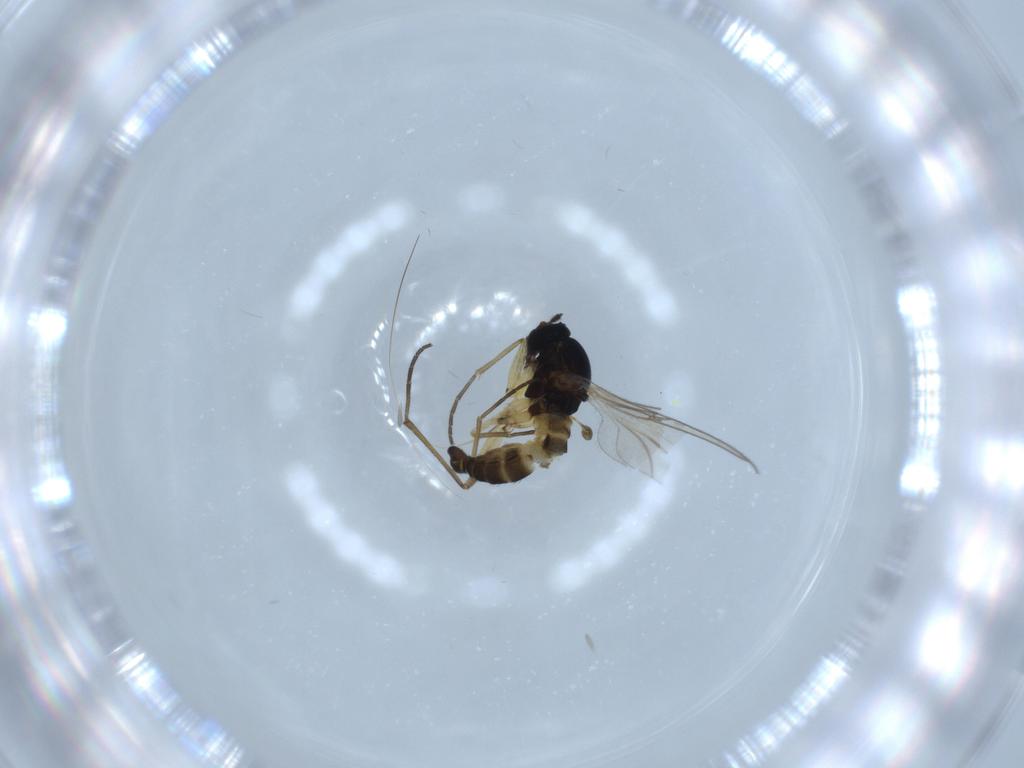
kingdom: Animalia
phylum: Arthropoda
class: Insecta
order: Diptera
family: Sciaridae
